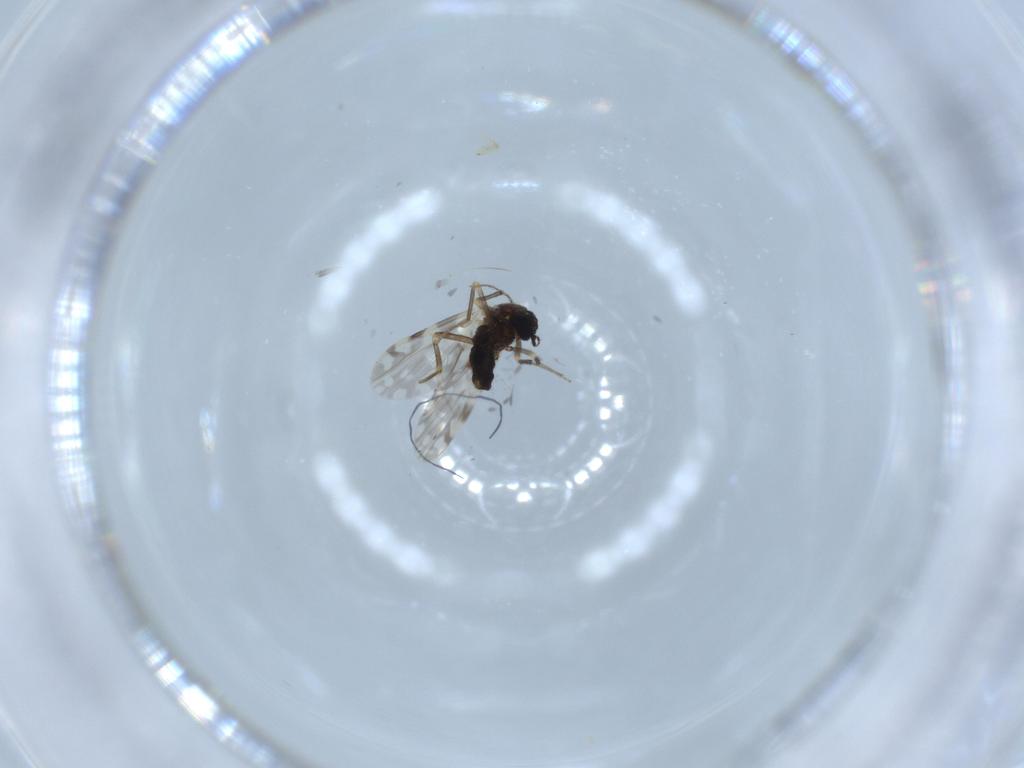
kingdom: Animalia
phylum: Arthropoda
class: Insecta
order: Diptera
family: Ceratopogonidae
